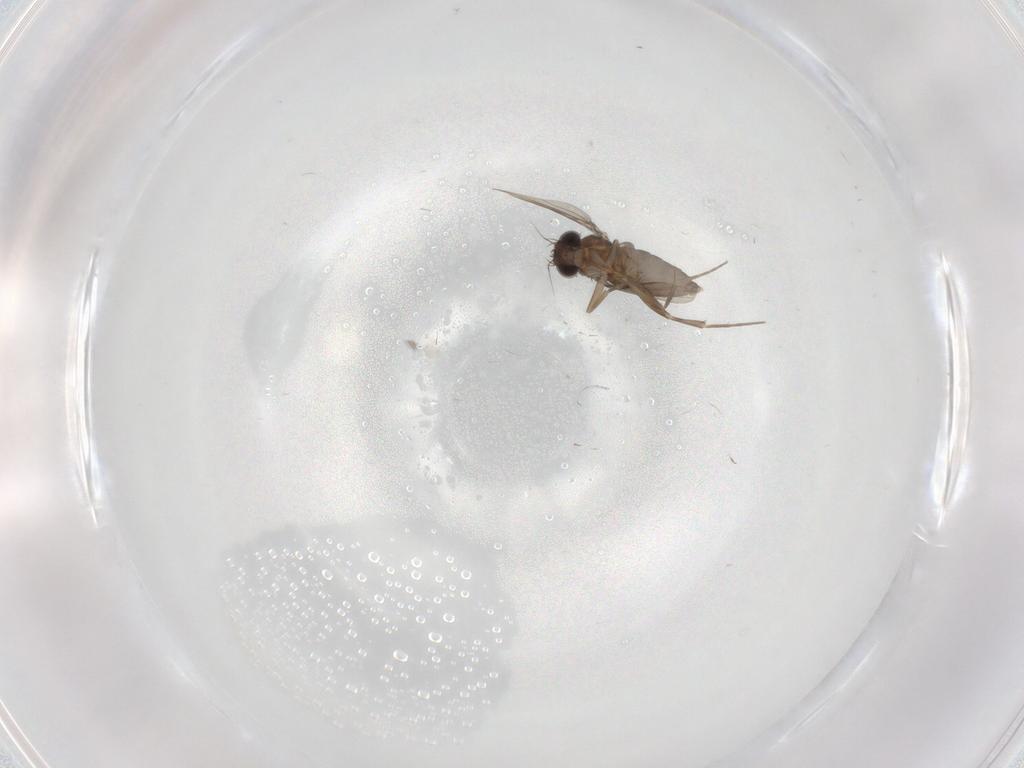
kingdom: Animalia
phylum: Arthropoda
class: Insecta
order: Diptera
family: Phoridae
